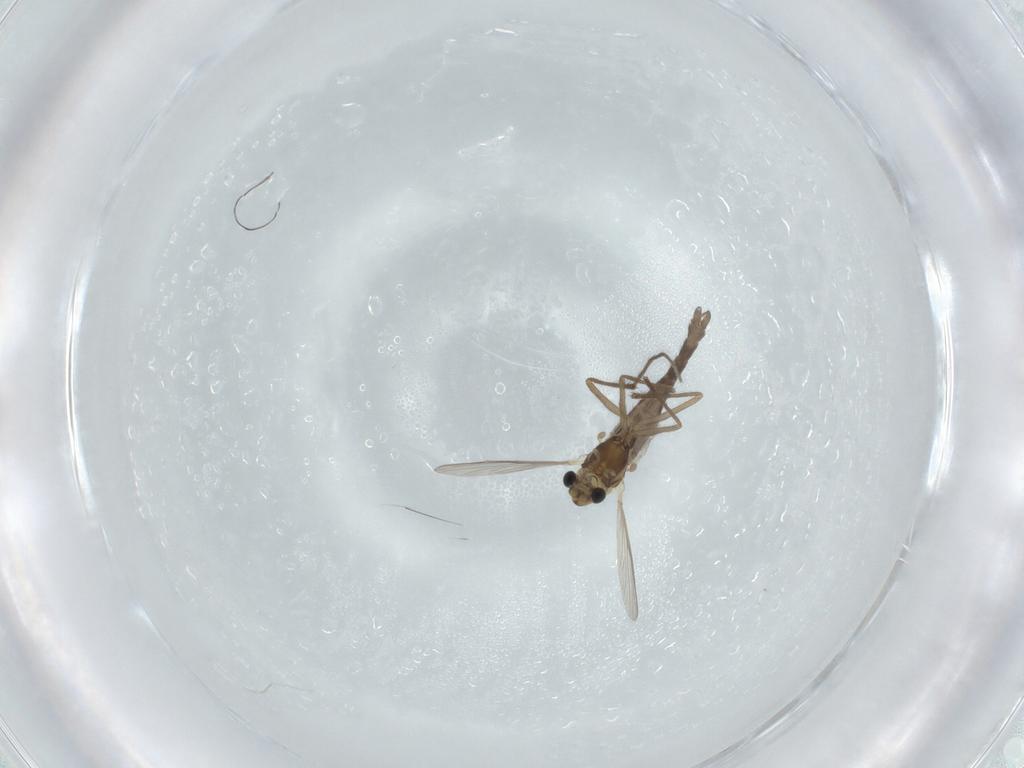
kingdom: Animalia
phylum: Arthropoda
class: Insecta
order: Diptera
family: Chironomidae
